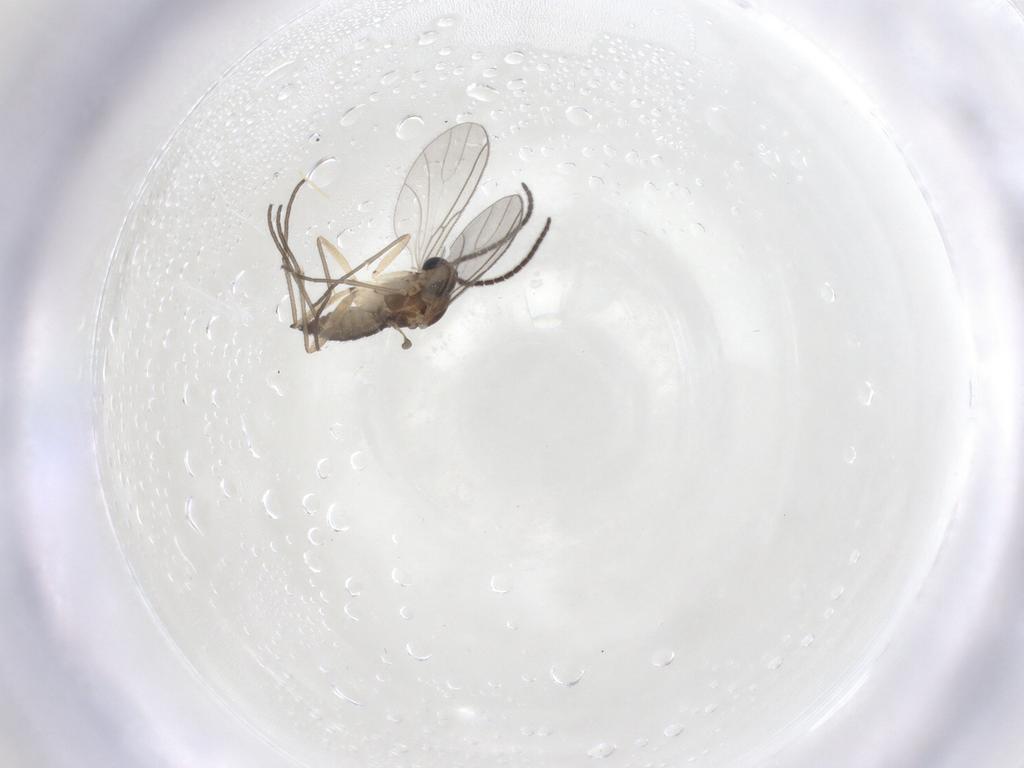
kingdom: Animalia
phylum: Arthropoda
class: Insecta
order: Diptera
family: Sciaridae
